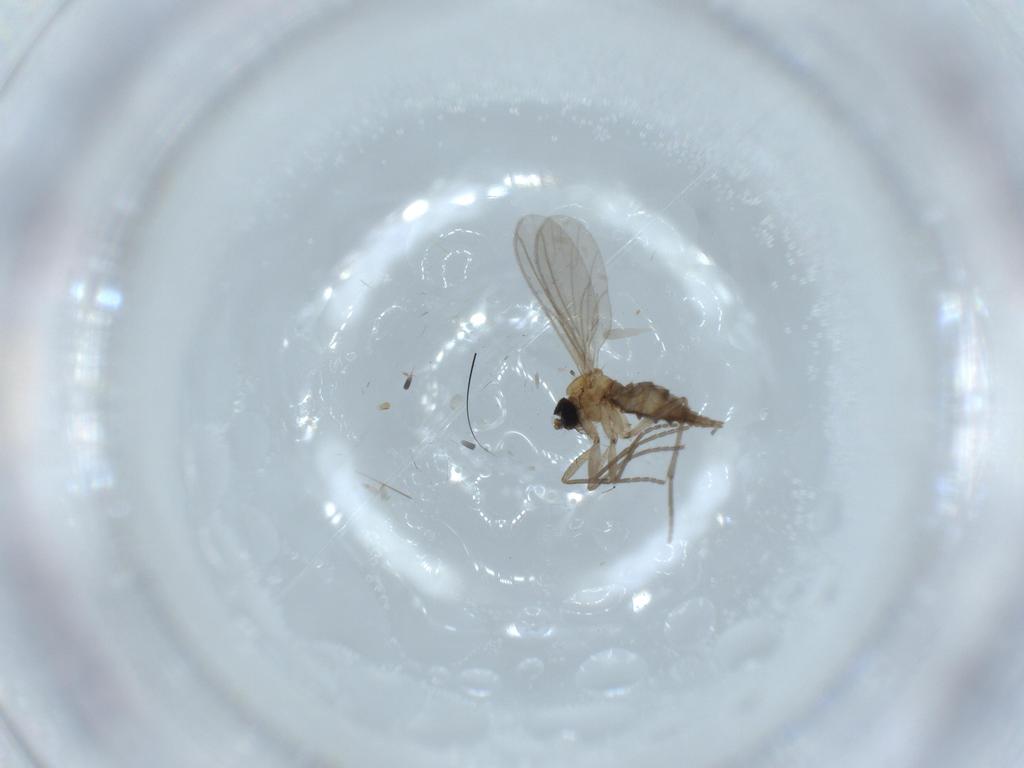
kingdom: Animalia
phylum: Arthropoda
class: Insecta
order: Diptera
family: Sciaridae
